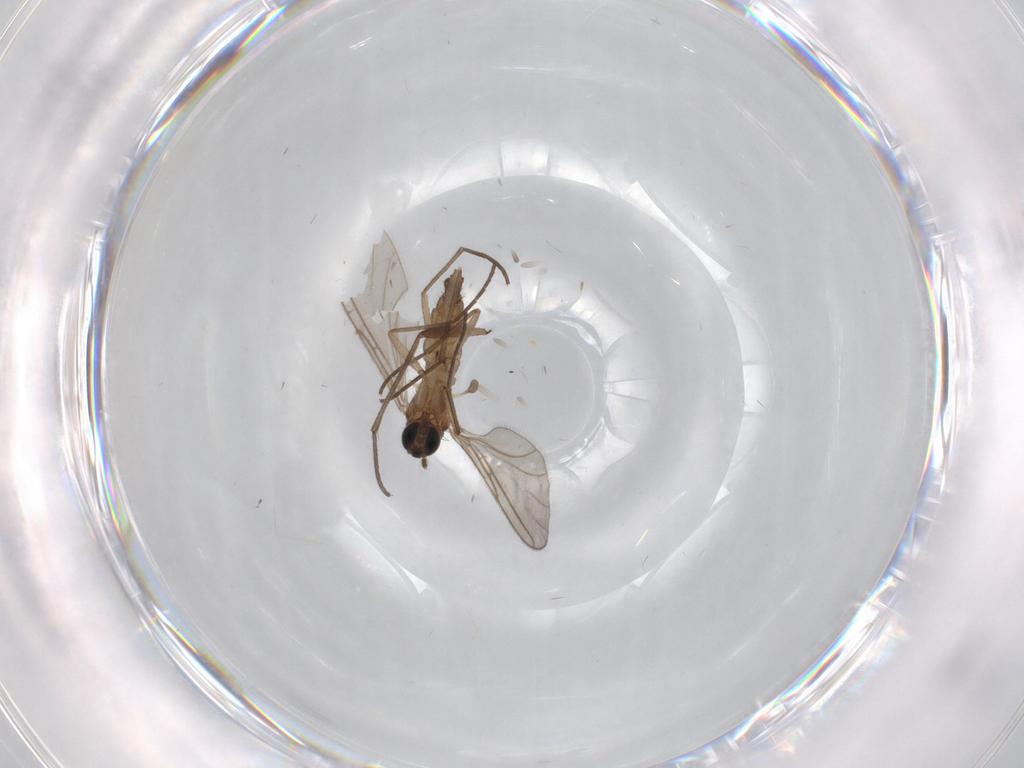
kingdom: Animalia
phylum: Arthropoda
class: Insecta
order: Diptera
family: Sciaridae
